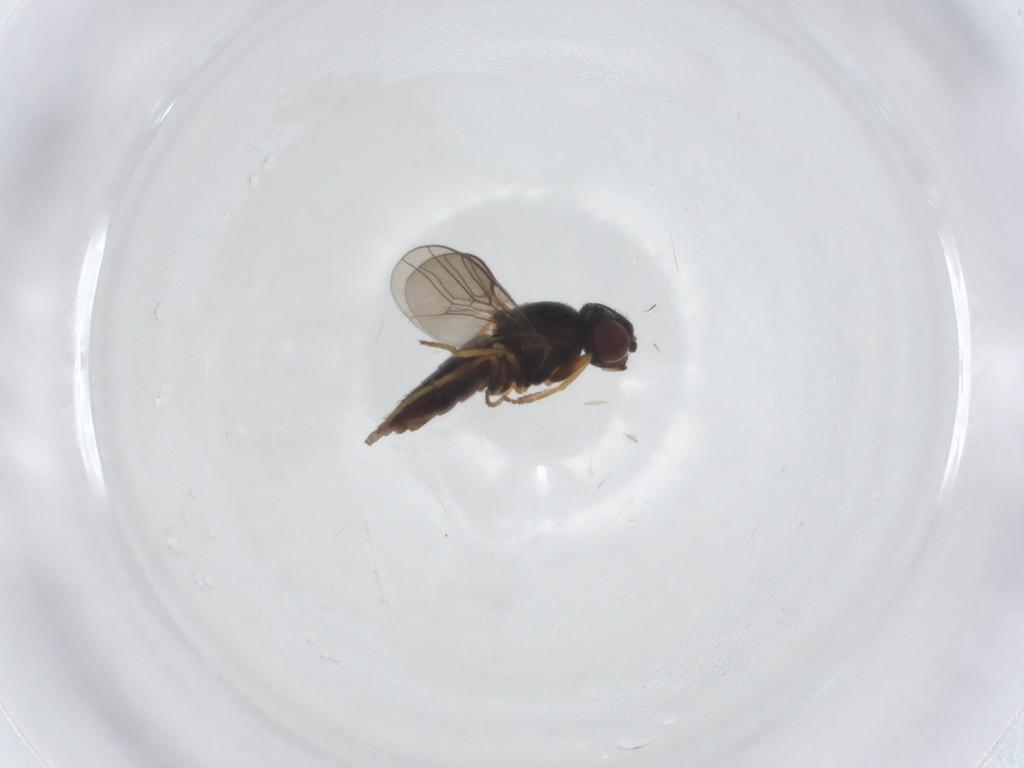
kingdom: Animalia
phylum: Arthropoda
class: Insecta
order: Diptera
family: Chloropidae
